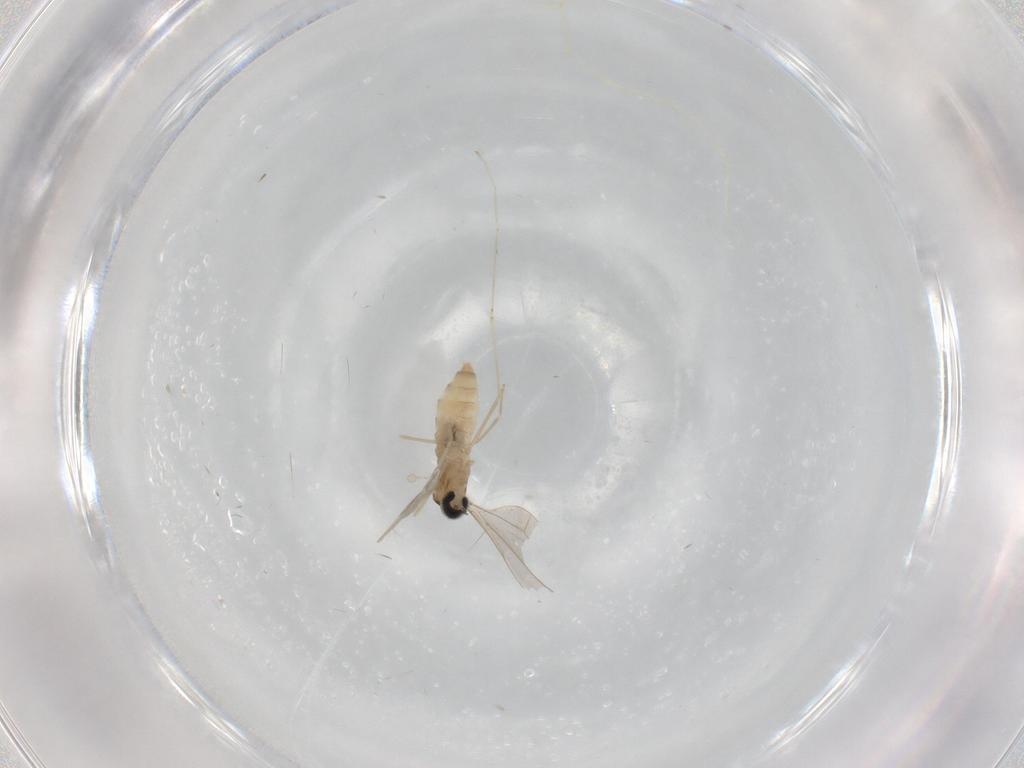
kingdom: Animalia
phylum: Arthropoda
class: Insecta
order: Diptera
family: Cecidomyiidae
